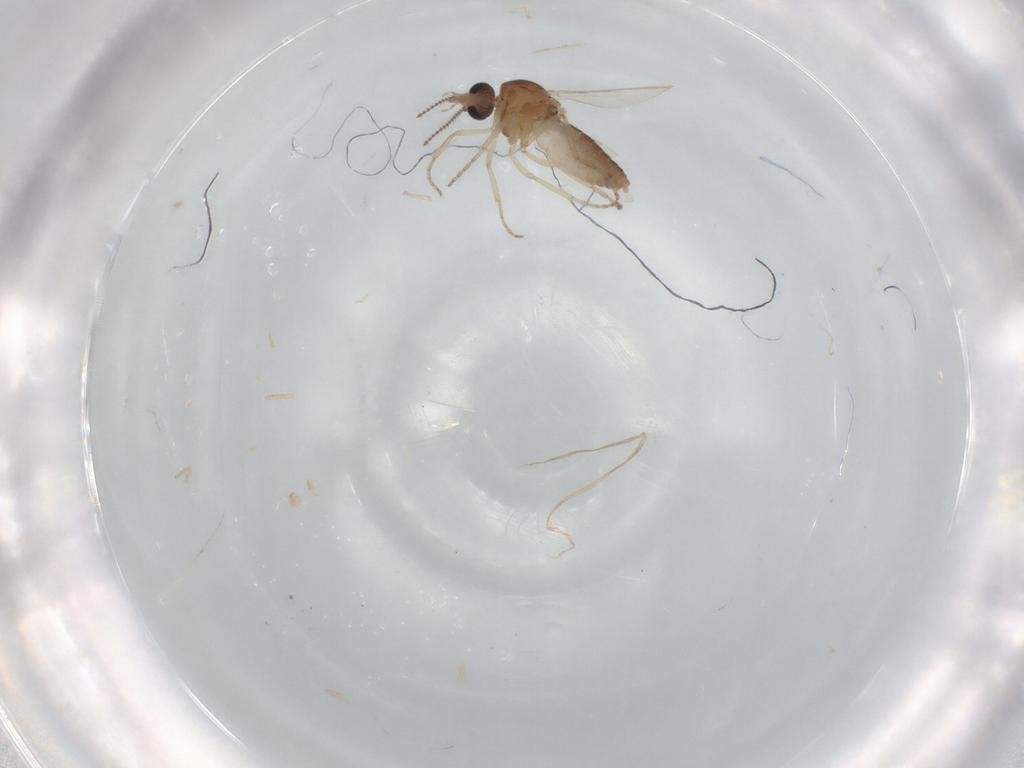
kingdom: Animalia
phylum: Arthropoda
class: Insecta
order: Diptera
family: Ceratopogonidae
